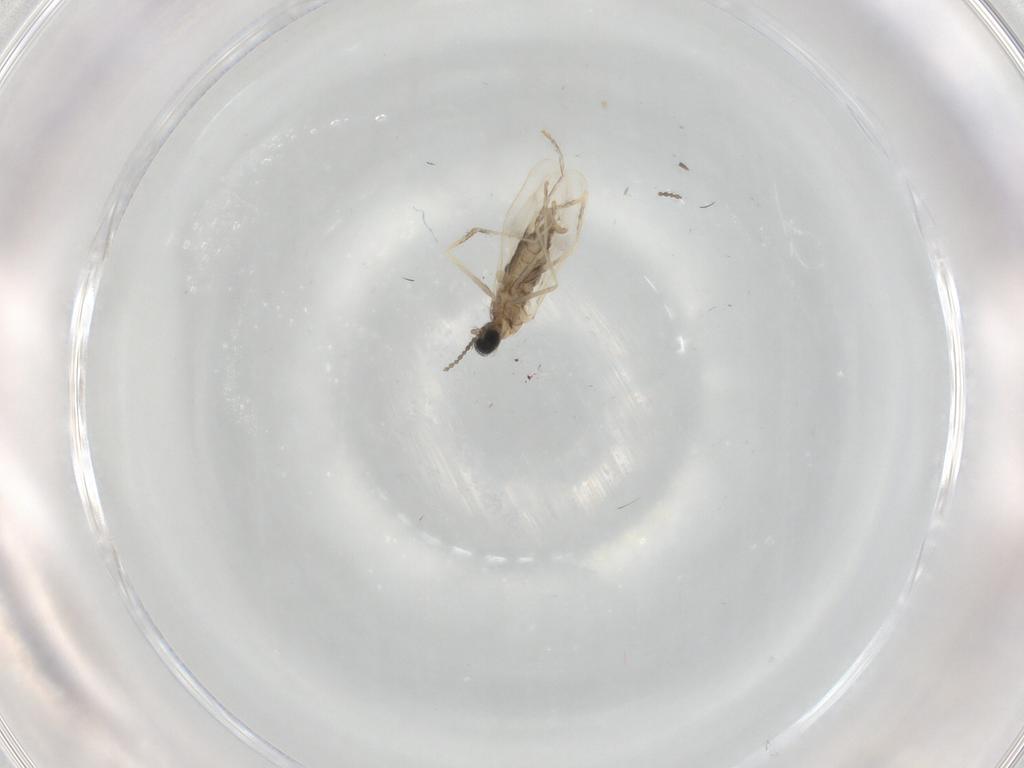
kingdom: Animalia
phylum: Arthropoda
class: Insecta
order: Diptera
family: Cecidomyiidae
